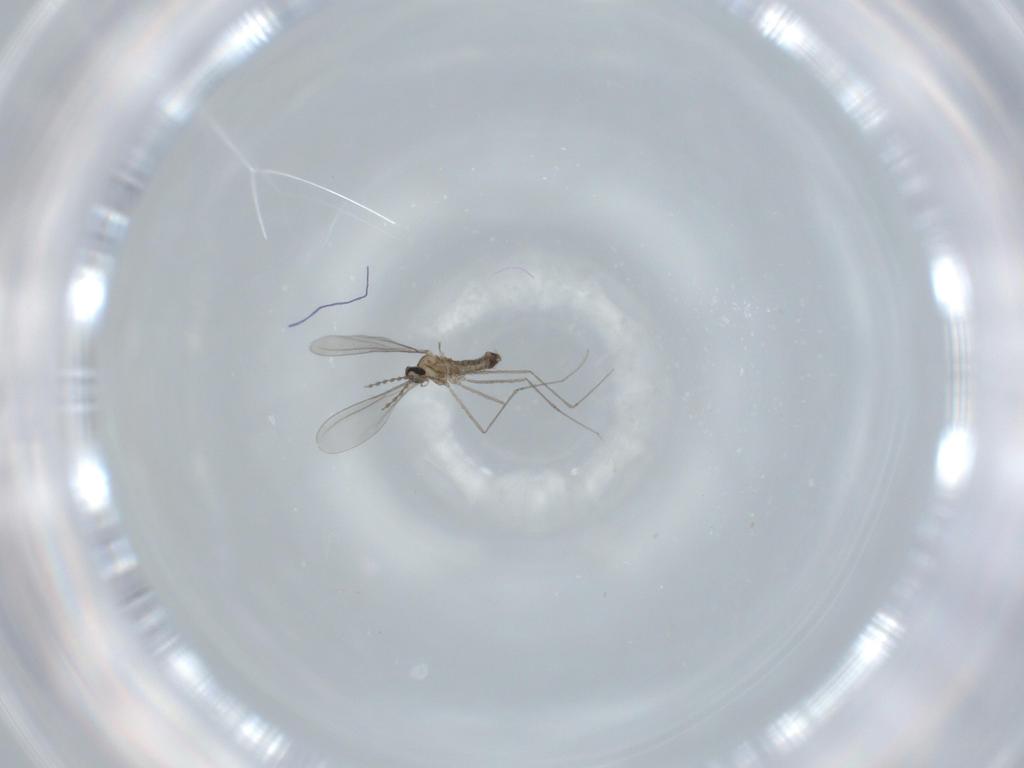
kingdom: Animalia
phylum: Arthropoda
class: Insecta
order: Diptera
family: Cecidomyiidae
